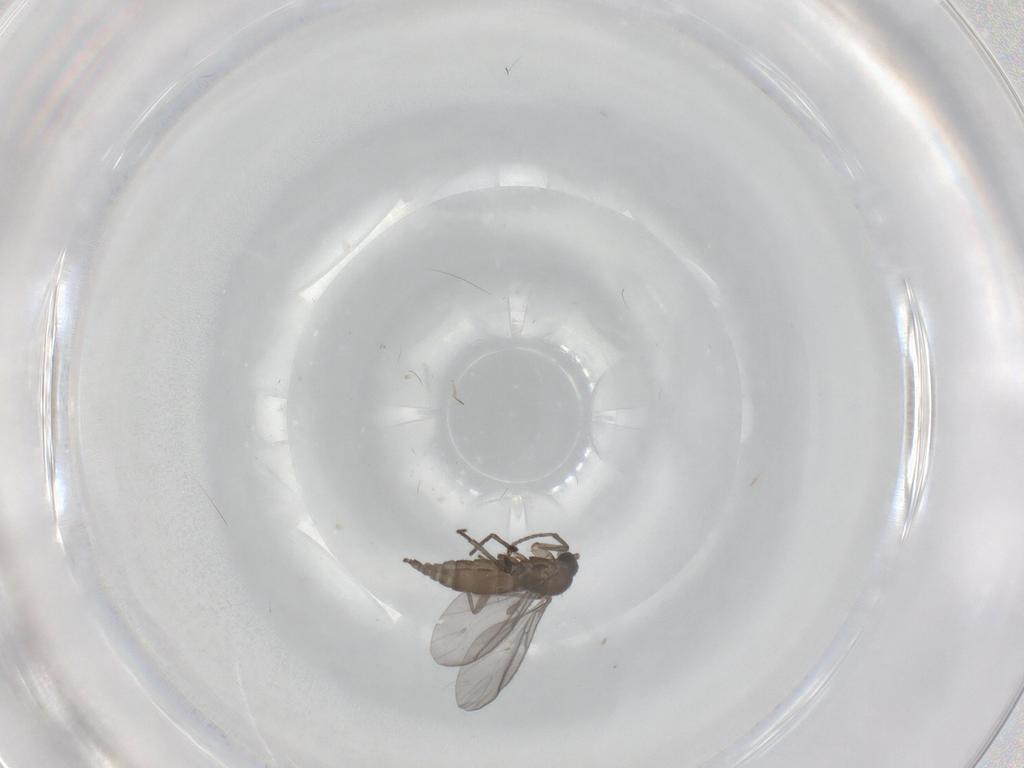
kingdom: Animalia
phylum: Arthropoda
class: Insecta
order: Diptera
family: Sciaridae
